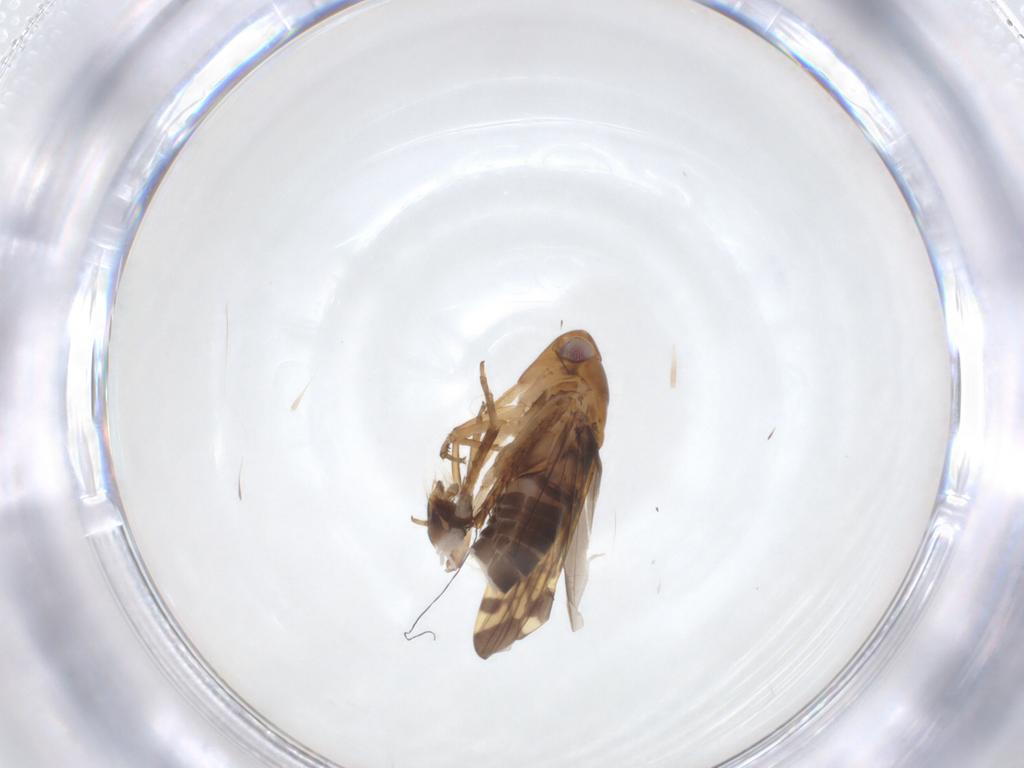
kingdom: Animalia
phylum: Arthropoda
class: Insecta
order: Hemiptera
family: Cicadellidae
